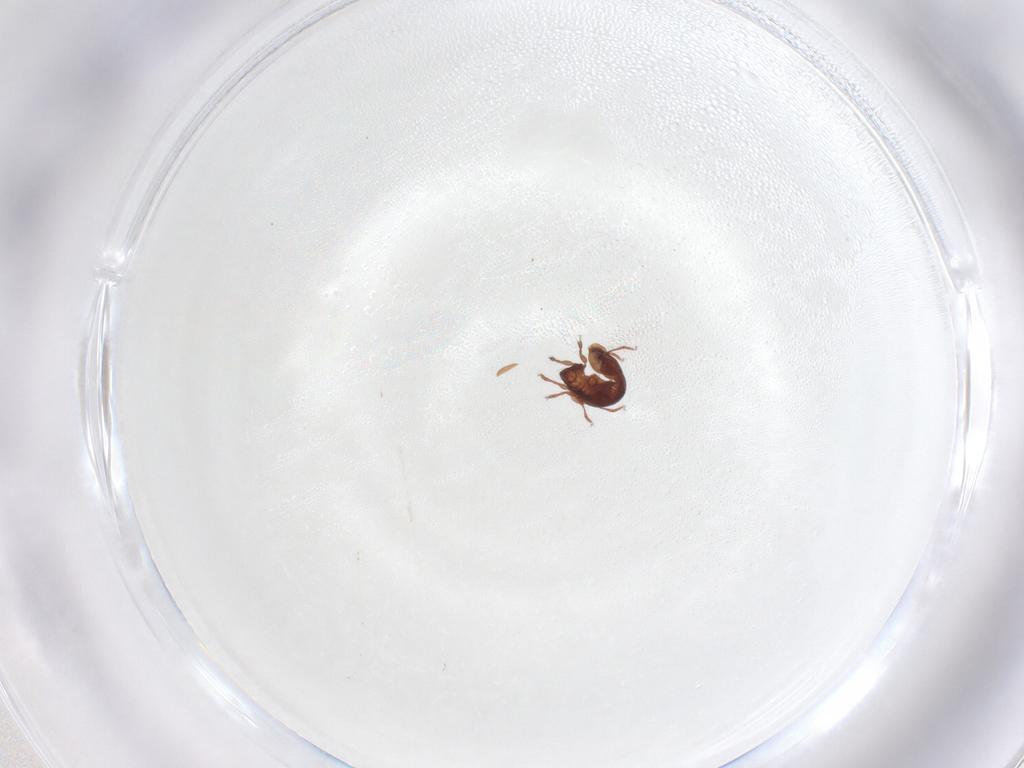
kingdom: Animalia
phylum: Arthropoda
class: Arachnida
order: Sarcoptiformes
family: Humerobatidae
